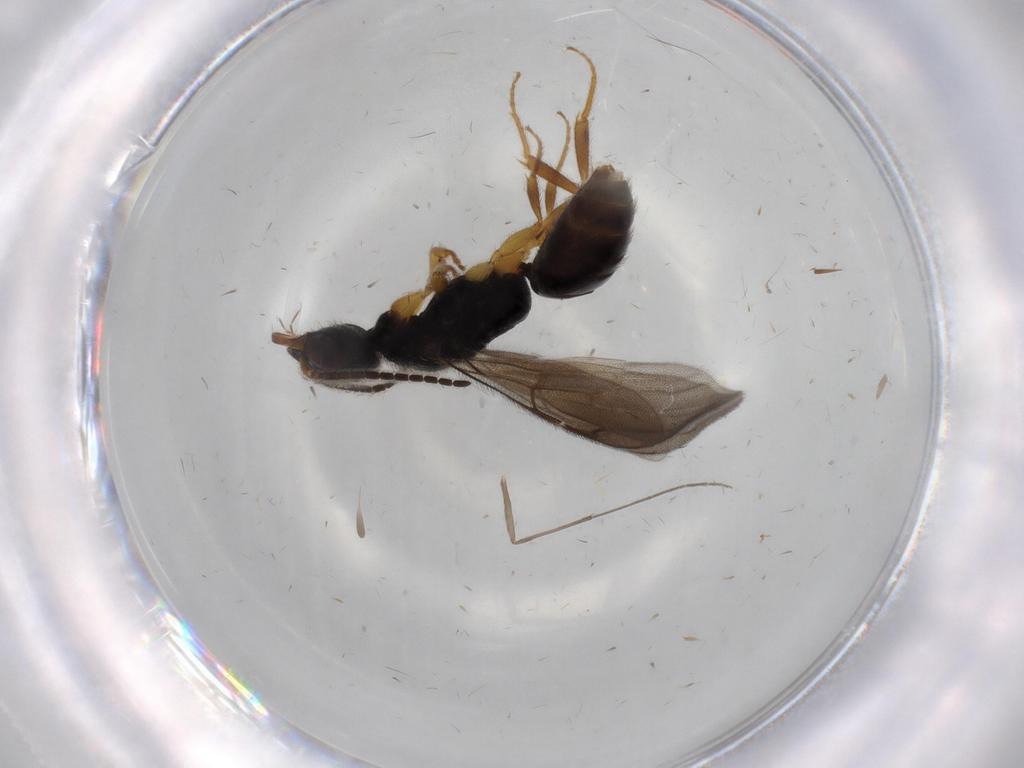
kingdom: Animalia
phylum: Arthropoda
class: Insecta
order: Hymenoptera
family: Bethylidae
